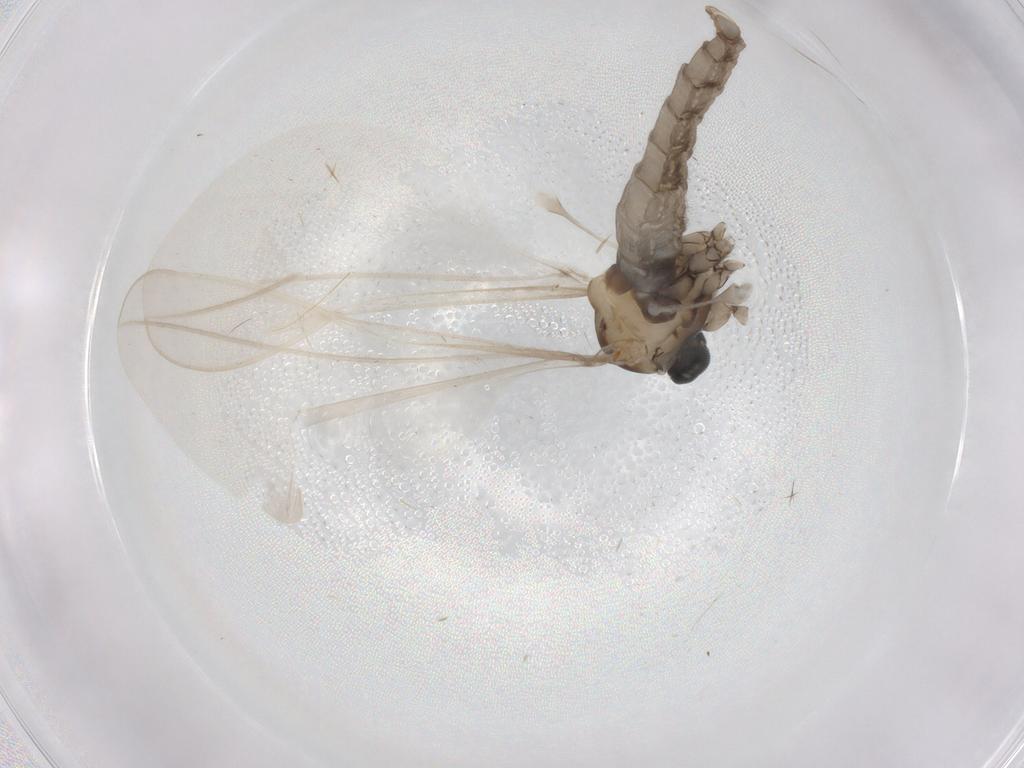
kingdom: Animalia
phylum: Arthropoda
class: Insecta
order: Diptera
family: Cecidomyiidae
